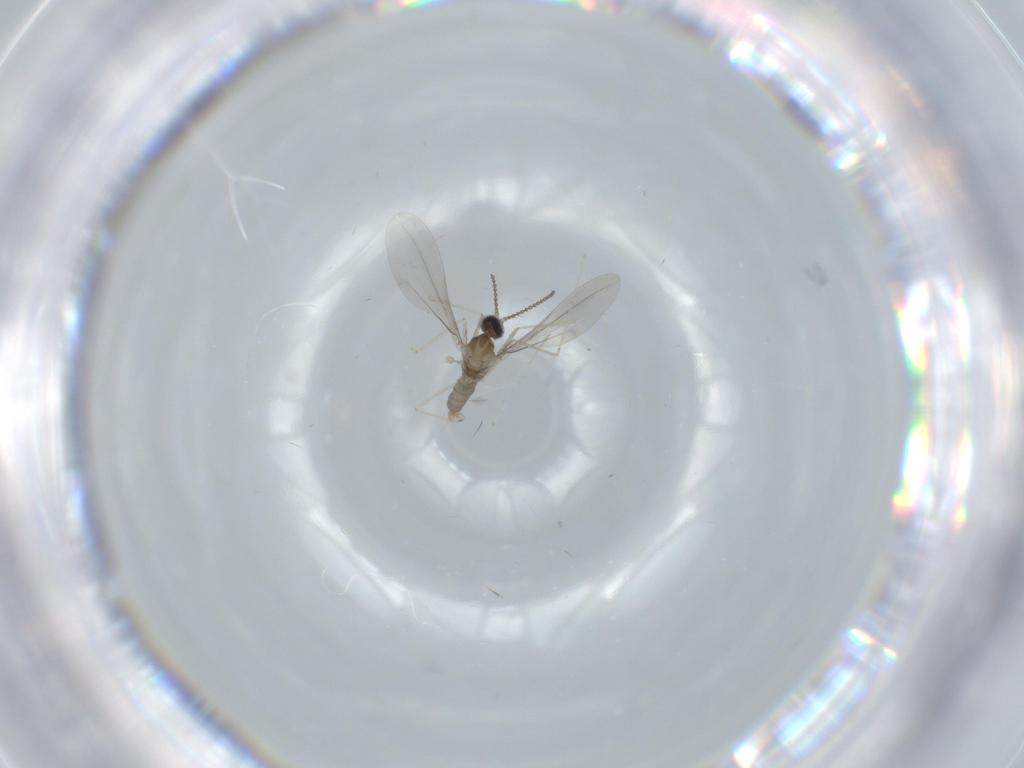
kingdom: Animalia
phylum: Arthropoda
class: Insecta
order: Diptera
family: Cecidomyiidae
